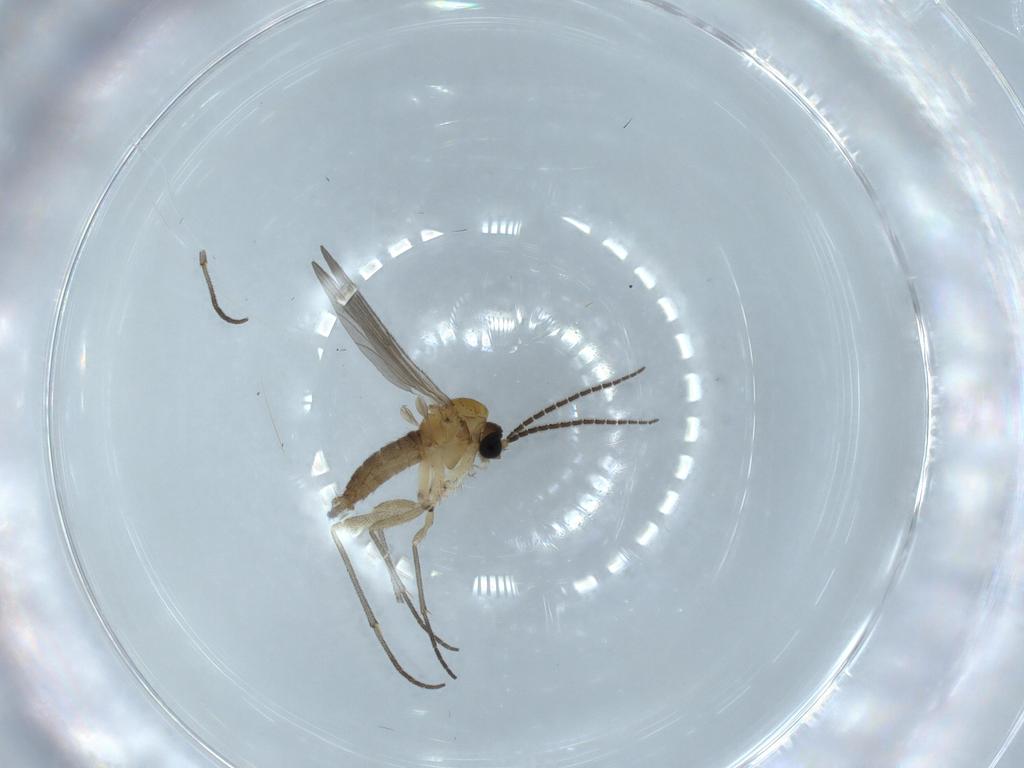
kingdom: Animalia
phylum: Arthropoda
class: Insecta
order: Diptera
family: Sciaridae
